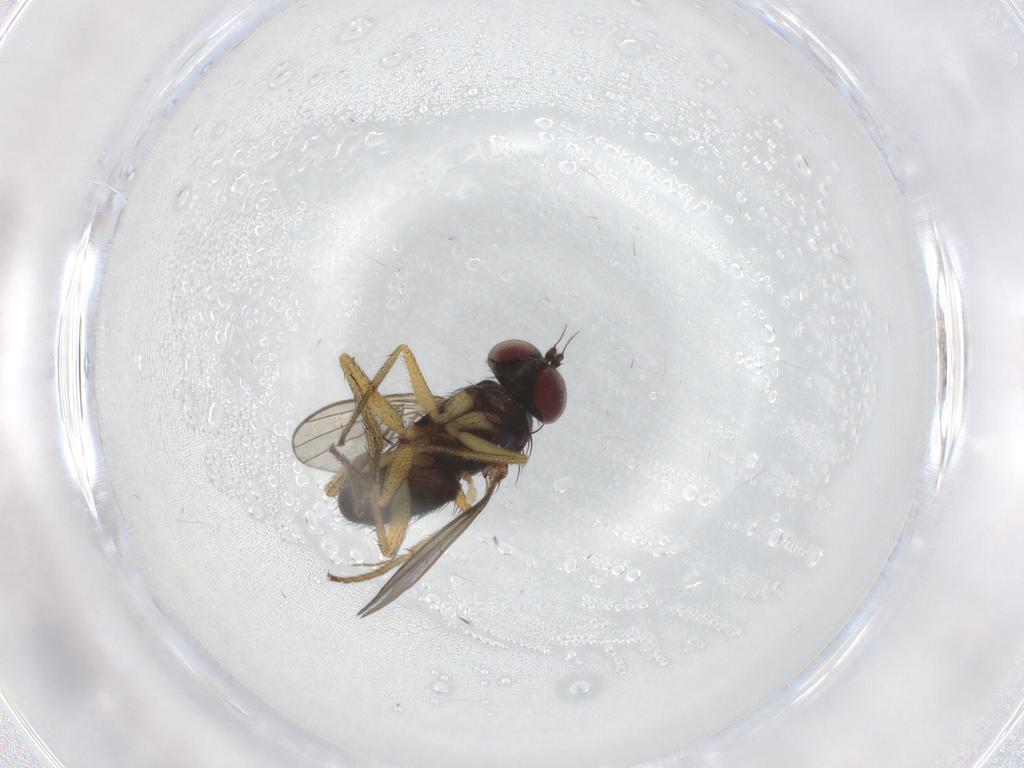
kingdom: Animalia
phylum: Arthropoda
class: Insecta
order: Diptera
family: Dolichopodidae
